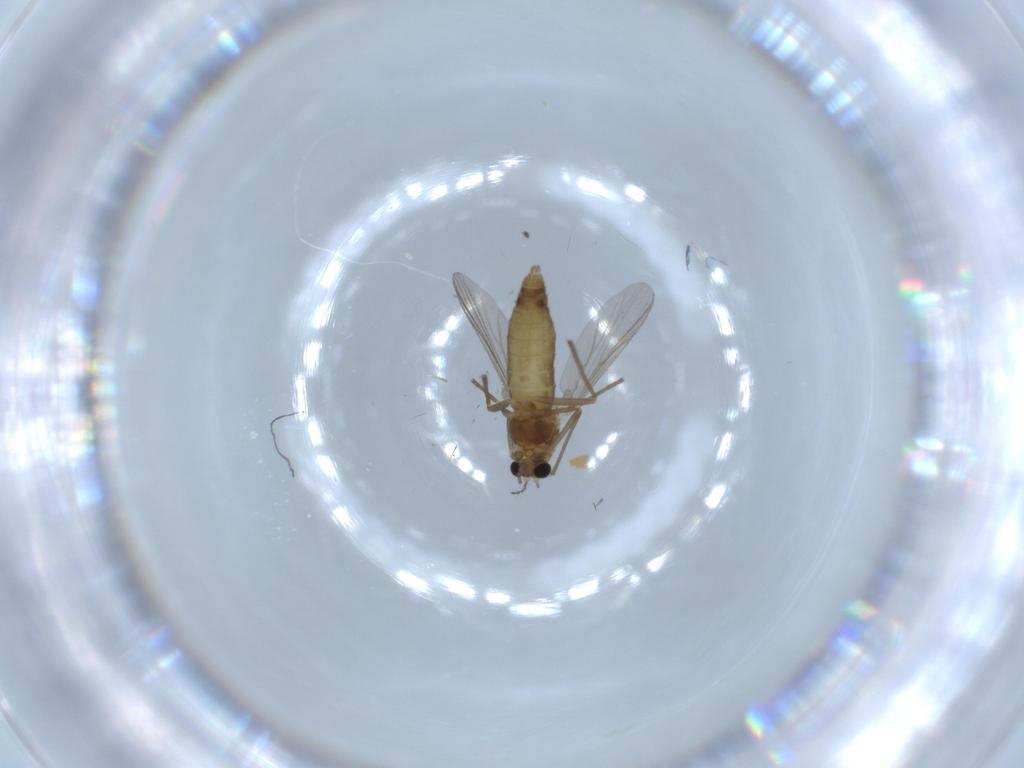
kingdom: Animalia
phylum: Arthropoda
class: Insecta
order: Diptera
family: Chironomidae
